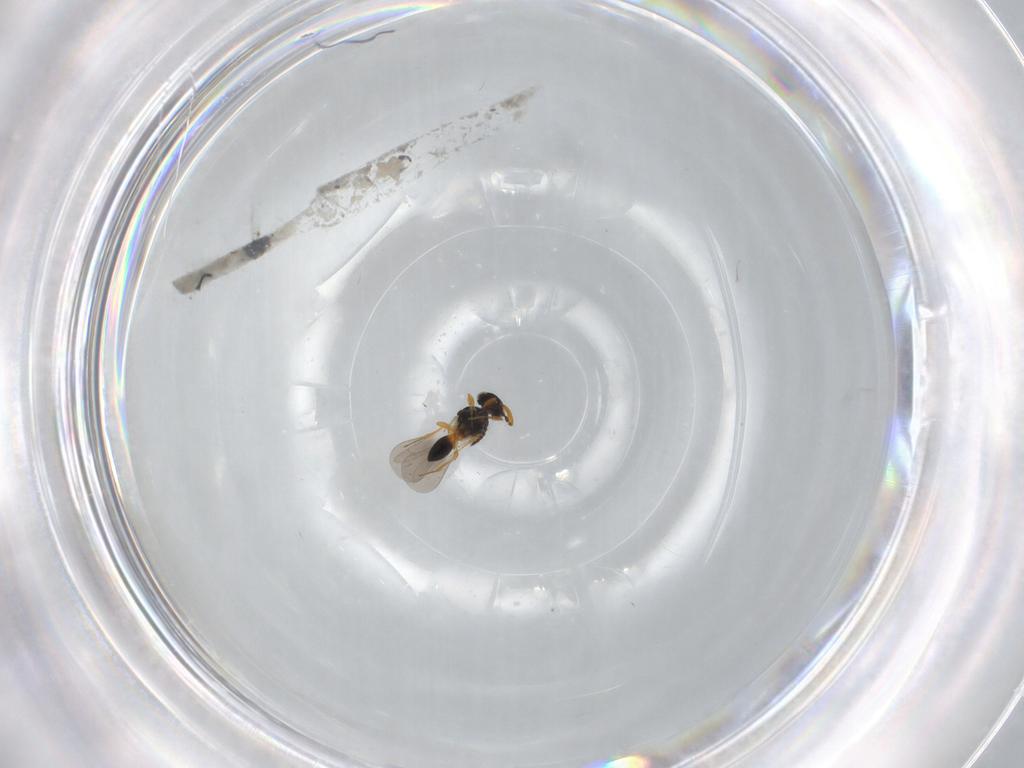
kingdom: Animalia
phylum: Arthropoda
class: Insecta
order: Hymenoptera
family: Platygastridae
